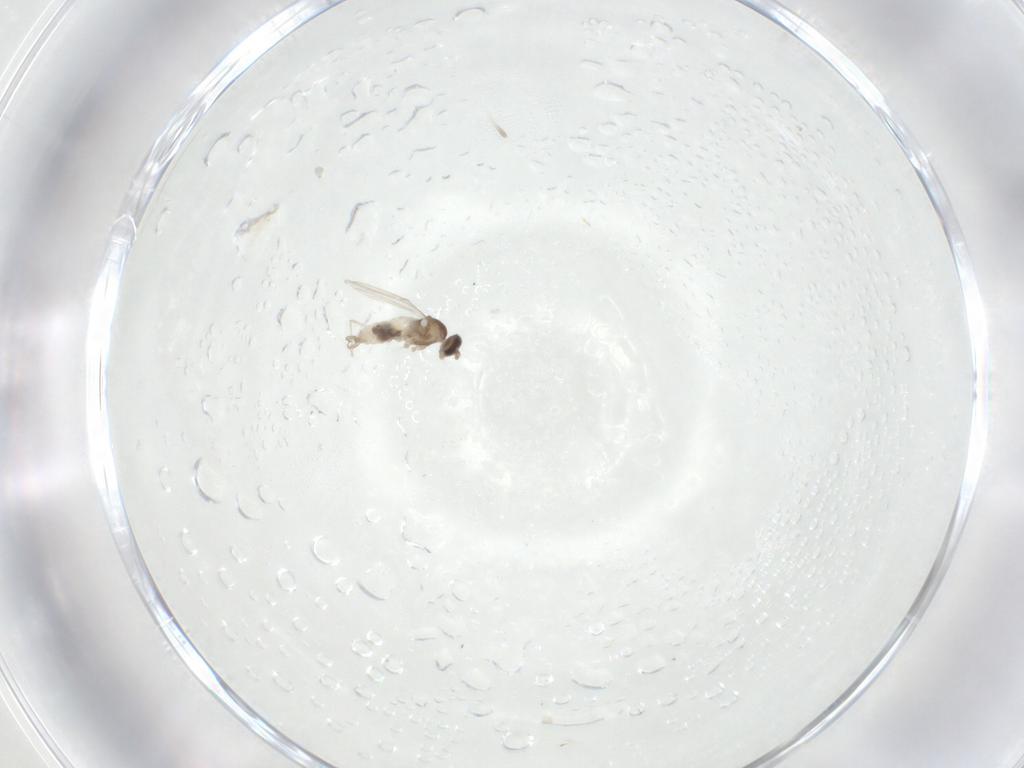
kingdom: Animalia
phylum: Arthropoda
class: Insecta
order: Diptera
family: Cecidomyiidae
